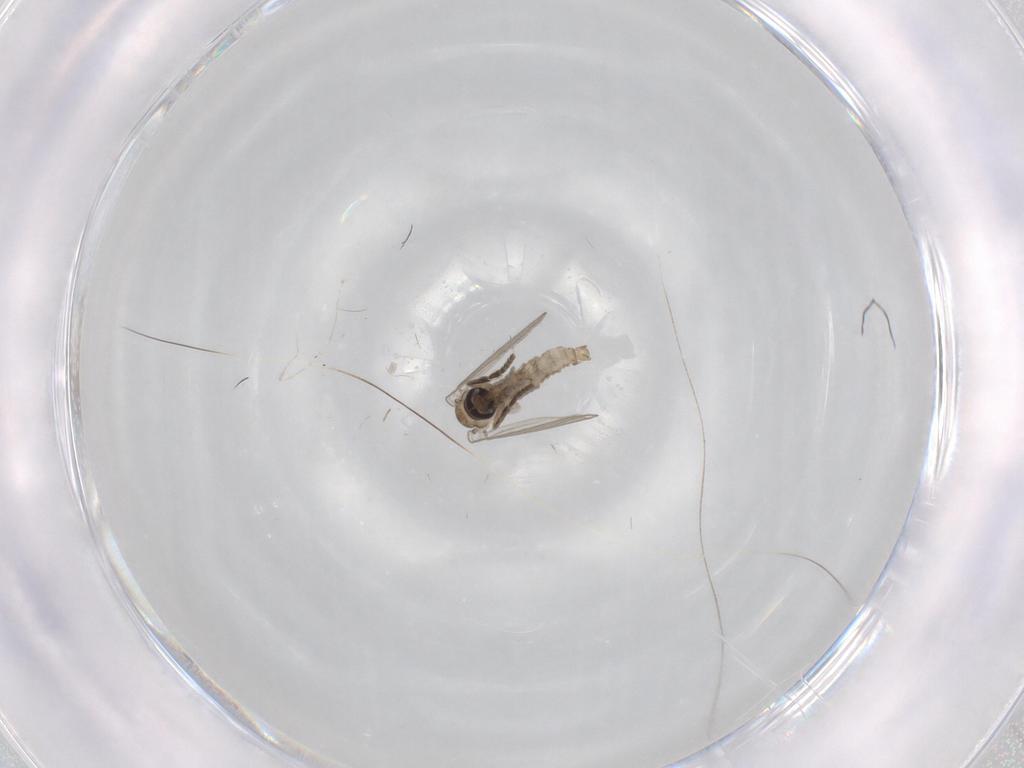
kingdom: Animalia
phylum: Arthropoda
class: Insecta
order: Diptera
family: Psychodidae
